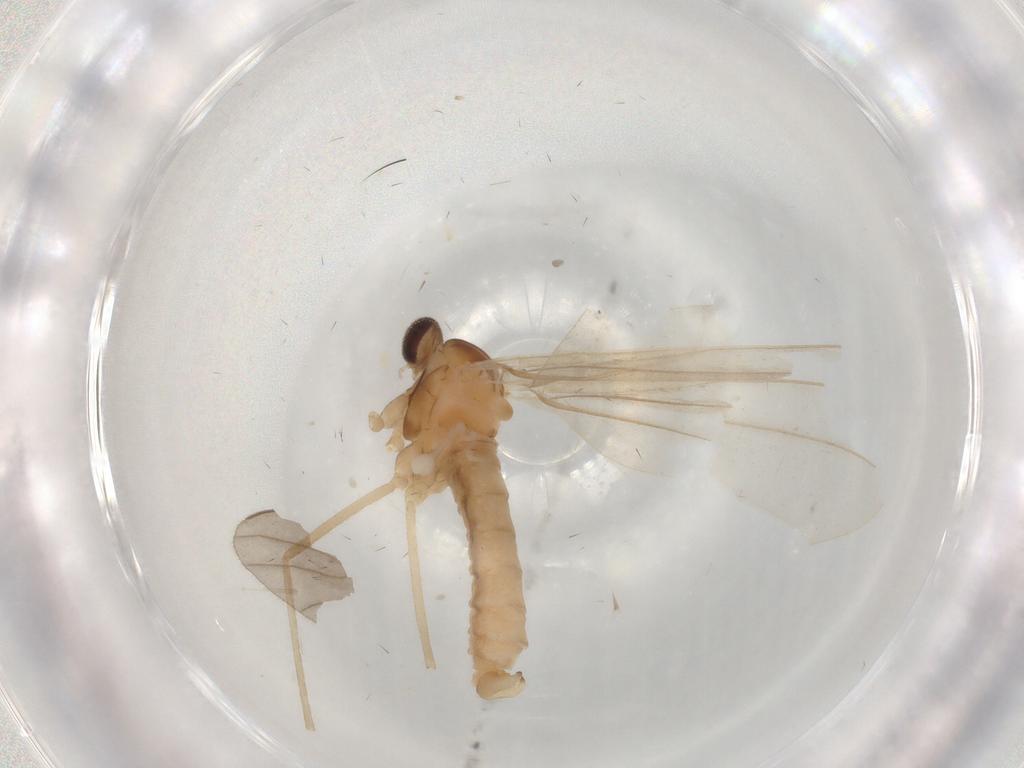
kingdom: Animalia
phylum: Arthropoda
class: Insecta
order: Diptera
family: Cecidomyiidae
